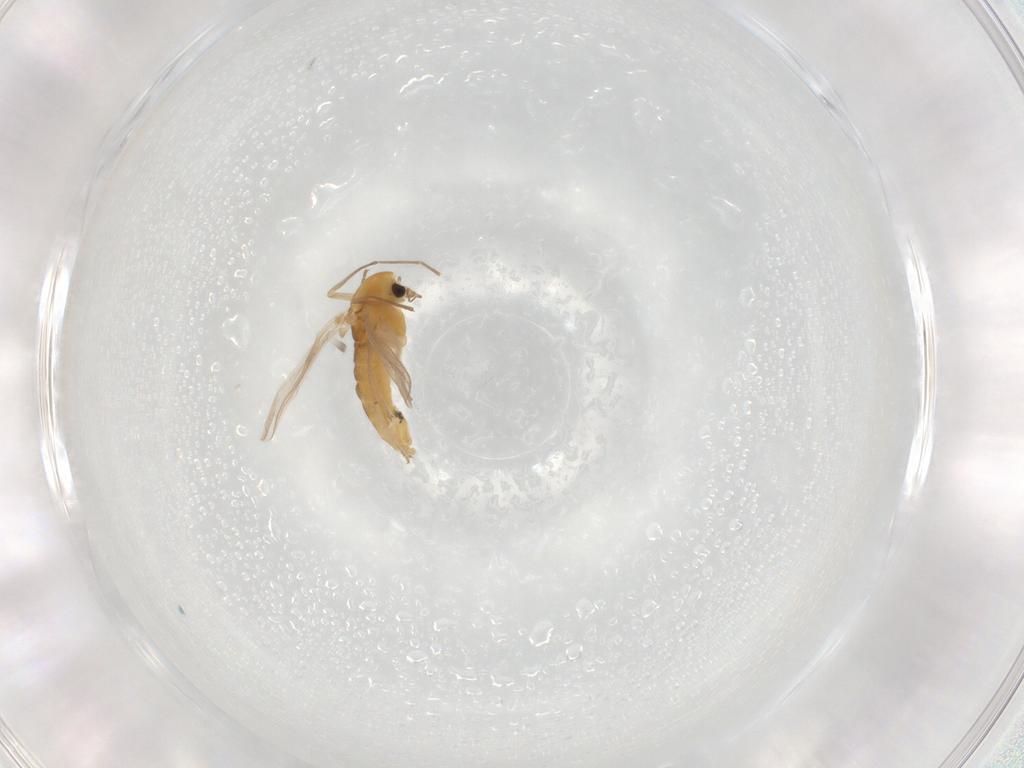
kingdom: Animalia
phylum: Arthropoda
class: Insecta
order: Diptera
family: Chironomidae
